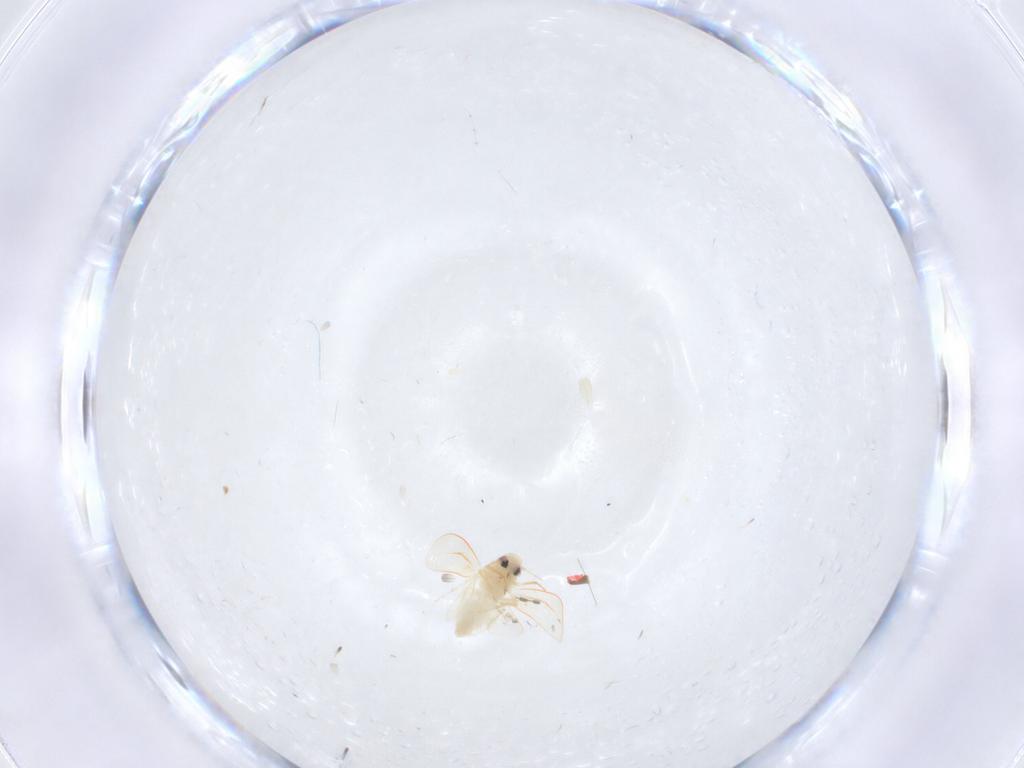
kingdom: Animalia
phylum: Arthropoda
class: Insecta
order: Hemiptera
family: Aleyrodidae
